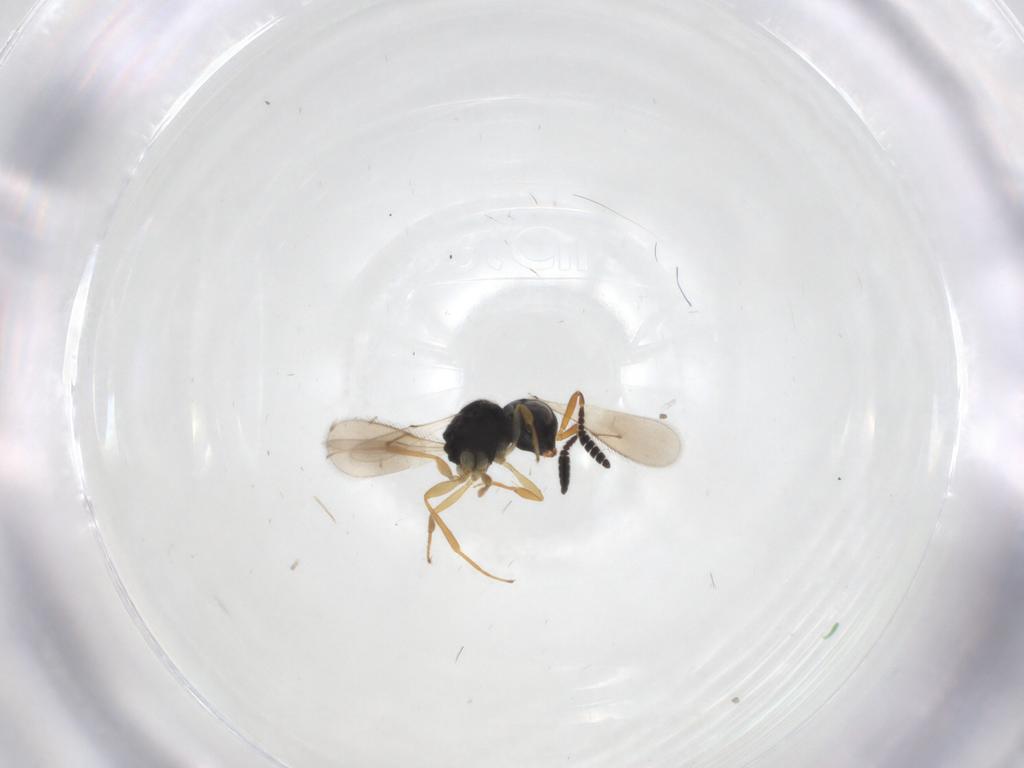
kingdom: Animalia
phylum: Arthropoda
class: Insecta
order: Hymenoptera
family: Scelionidae
